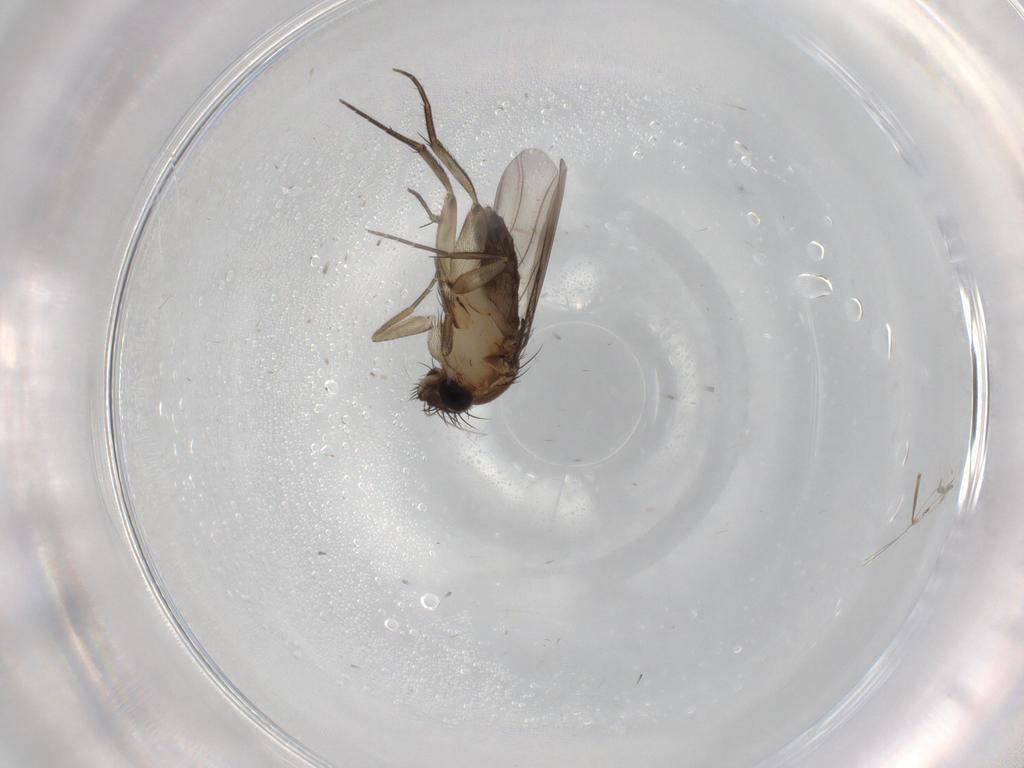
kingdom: Animalia
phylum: Arthropoda
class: Insecta
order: Diptera
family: Phoridae
